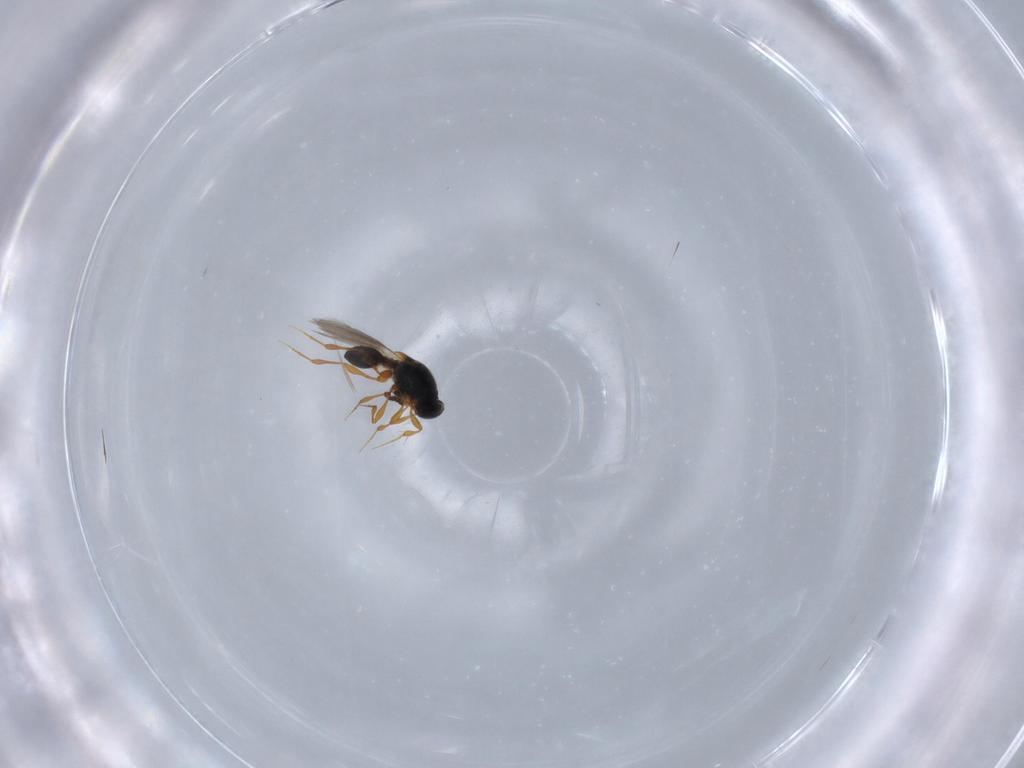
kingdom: Animalia
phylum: Arthropoda
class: Insecta
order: Hymenoptera
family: Platygastridae
